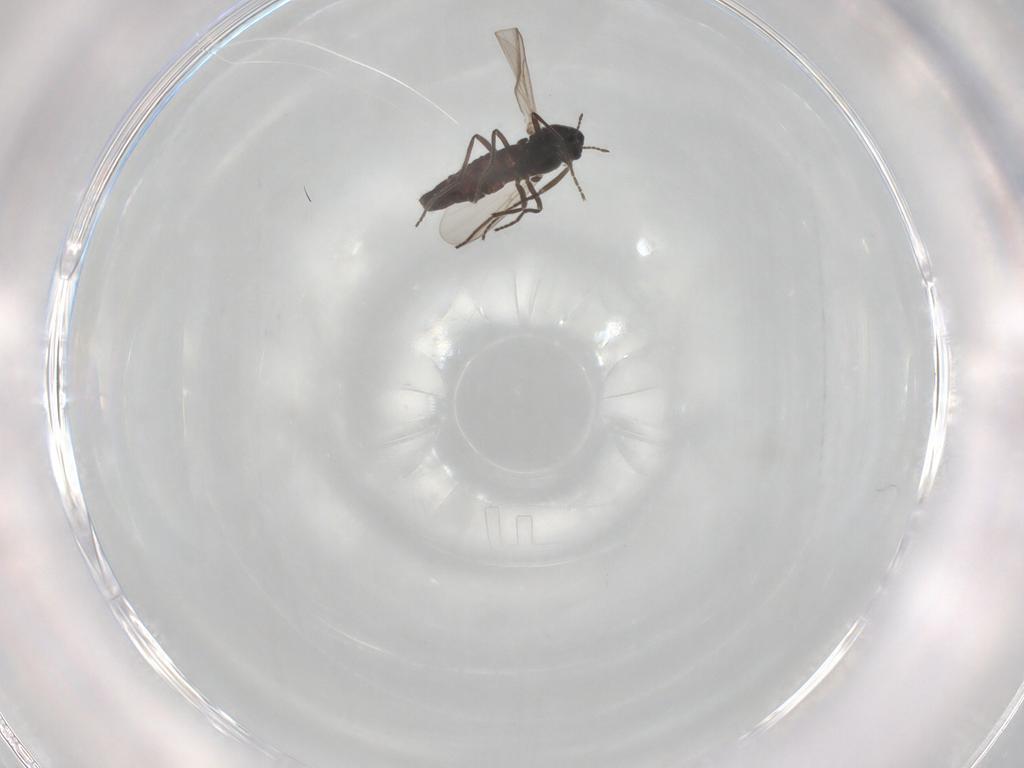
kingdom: Animalia
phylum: Arthropoda
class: Insecta
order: Diptera
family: Chironomidae
